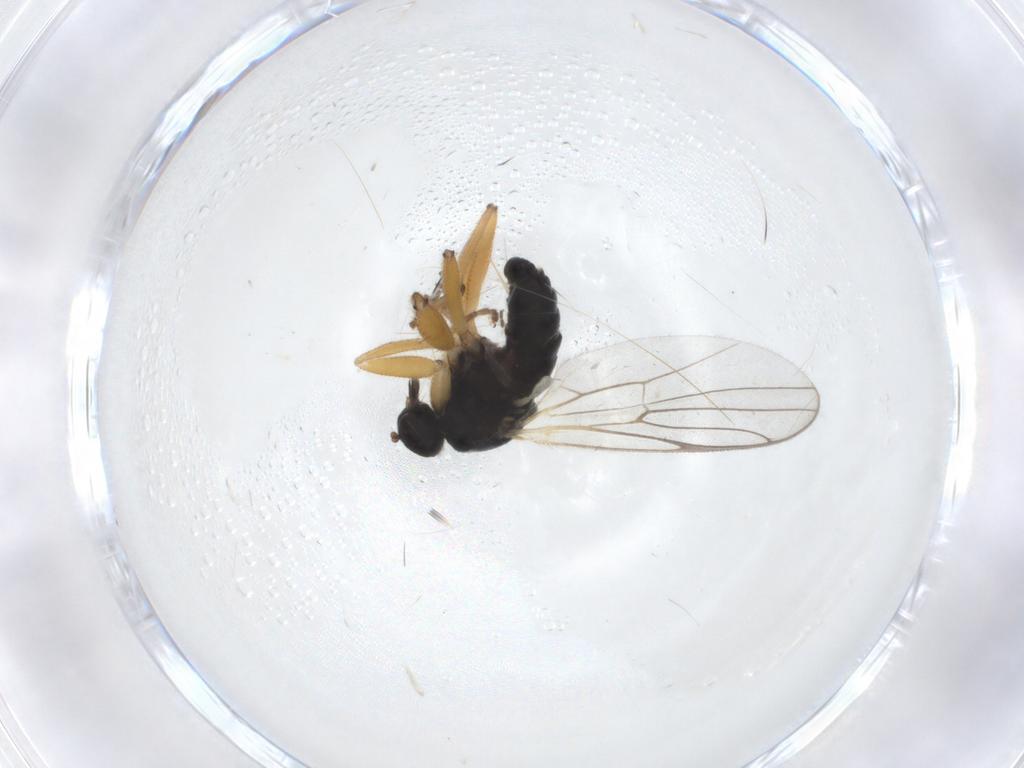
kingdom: Animalia
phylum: Arthropoda
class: Insecta
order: Diptera
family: Hybotidae
